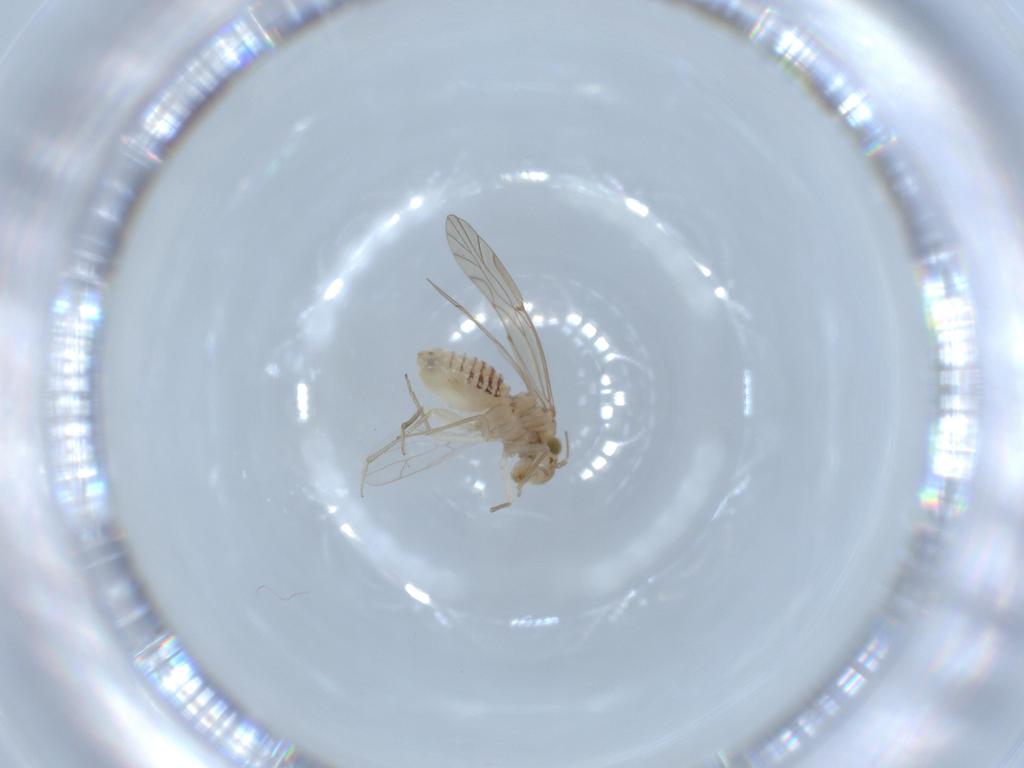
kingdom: Animalia
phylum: Arthropoda
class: Insecta
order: Psocodea
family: Lachesillidae
